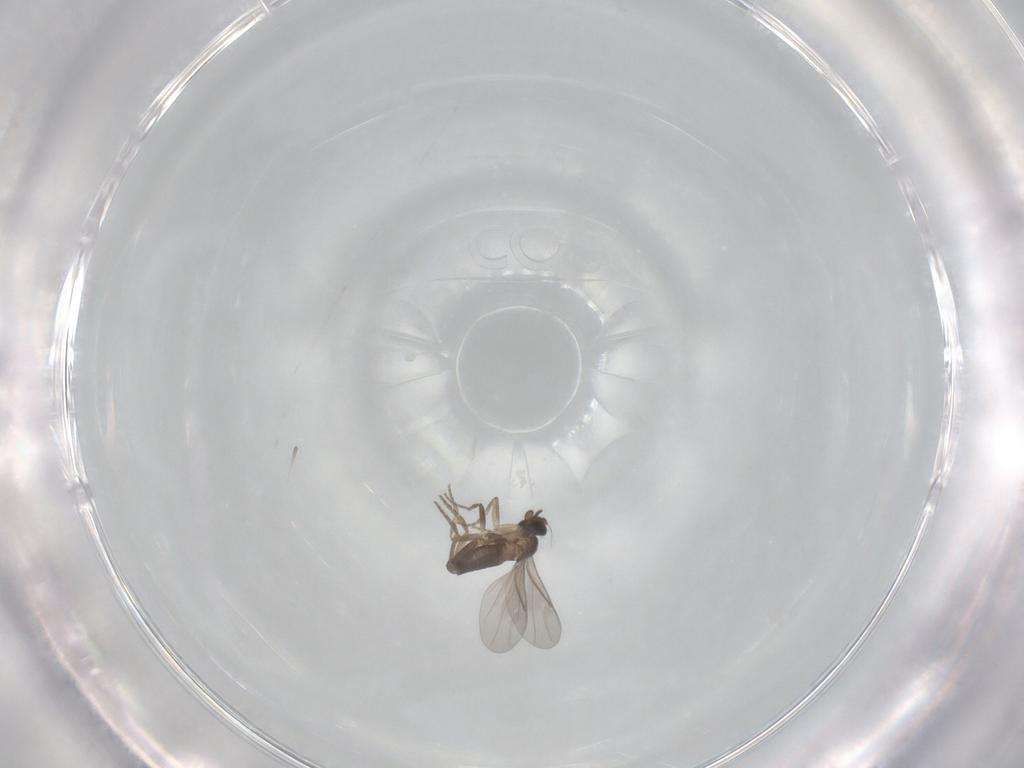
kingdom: Animalia
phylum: Arthropoda
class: Insecta
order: Diptera
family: Phoridae
